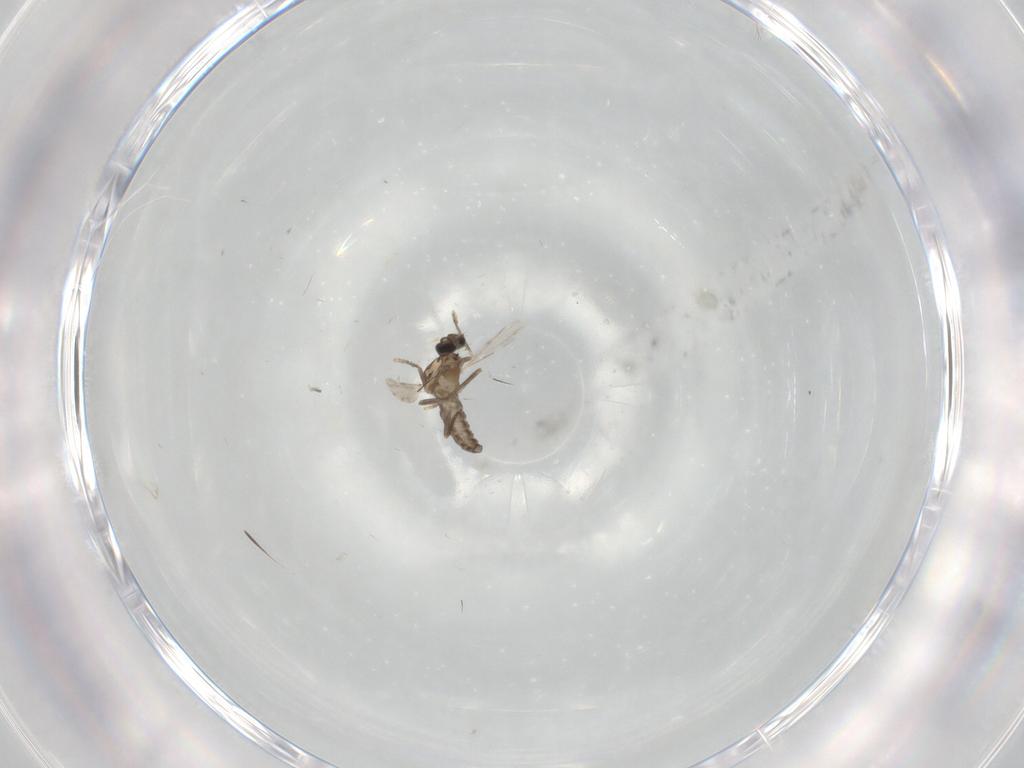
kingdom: Animalia
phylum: Arthropoda
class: Insecta
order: Diptera
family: Ceratopogonidae
